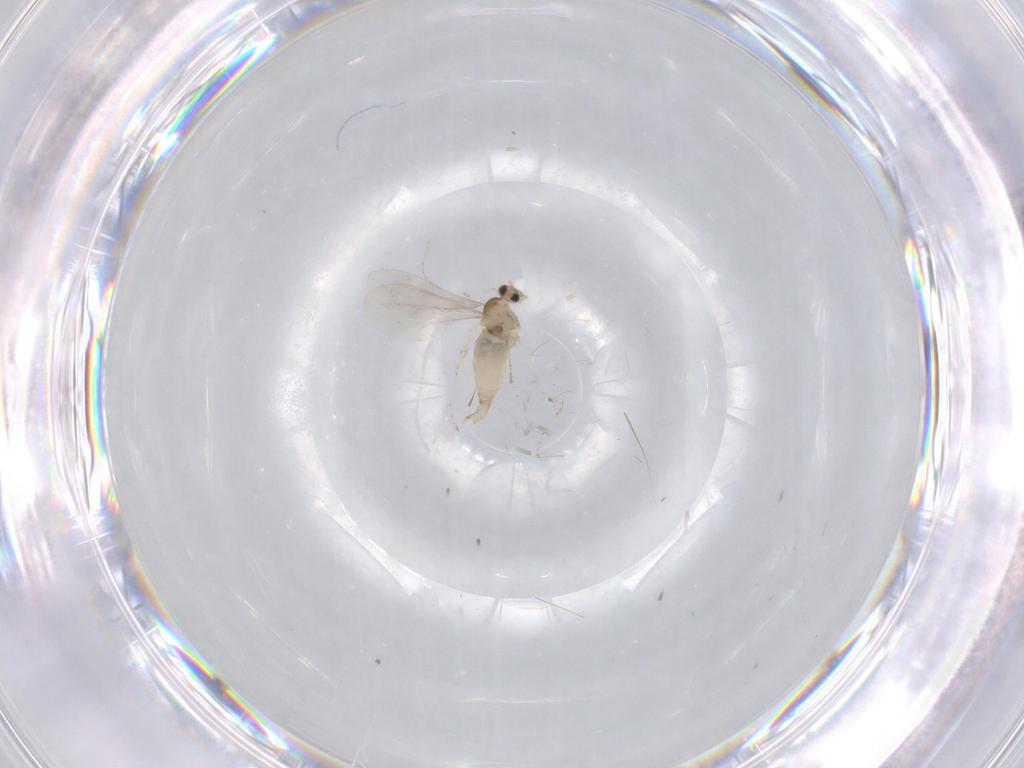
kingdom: Animalia
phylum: Arthropoda
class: Insecta
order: Diptera
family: Cecidomyiidae
